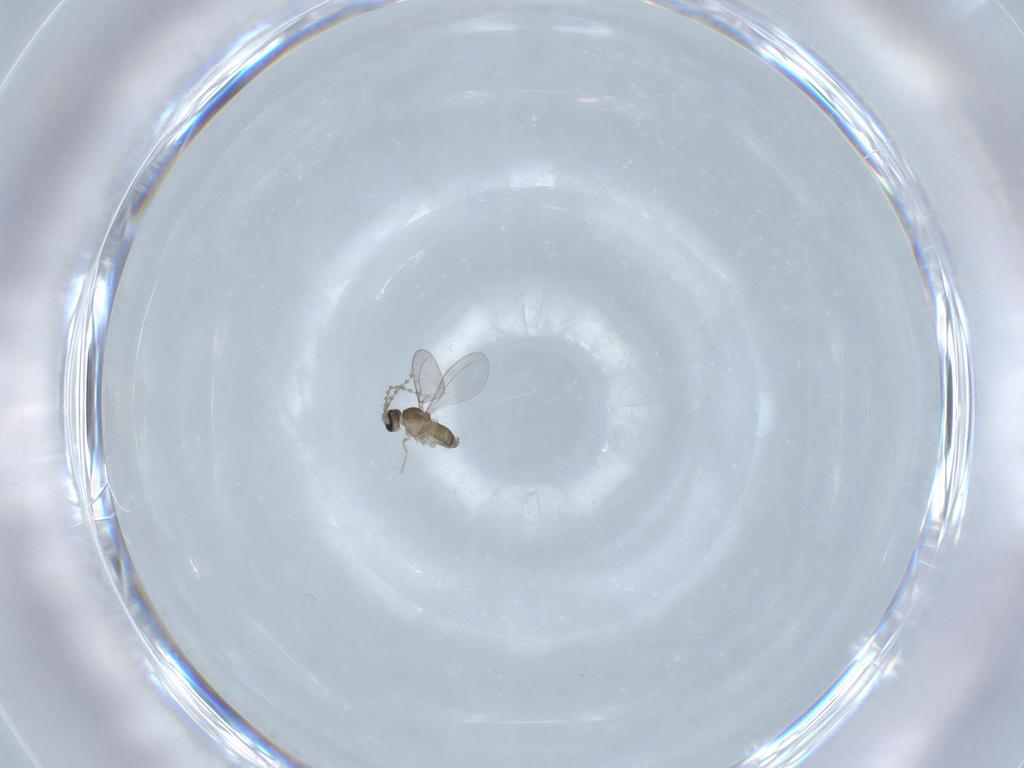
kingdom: Animalia
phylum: Arthropoda
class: Insecta
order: Diptera
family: Cecidomyiidae
